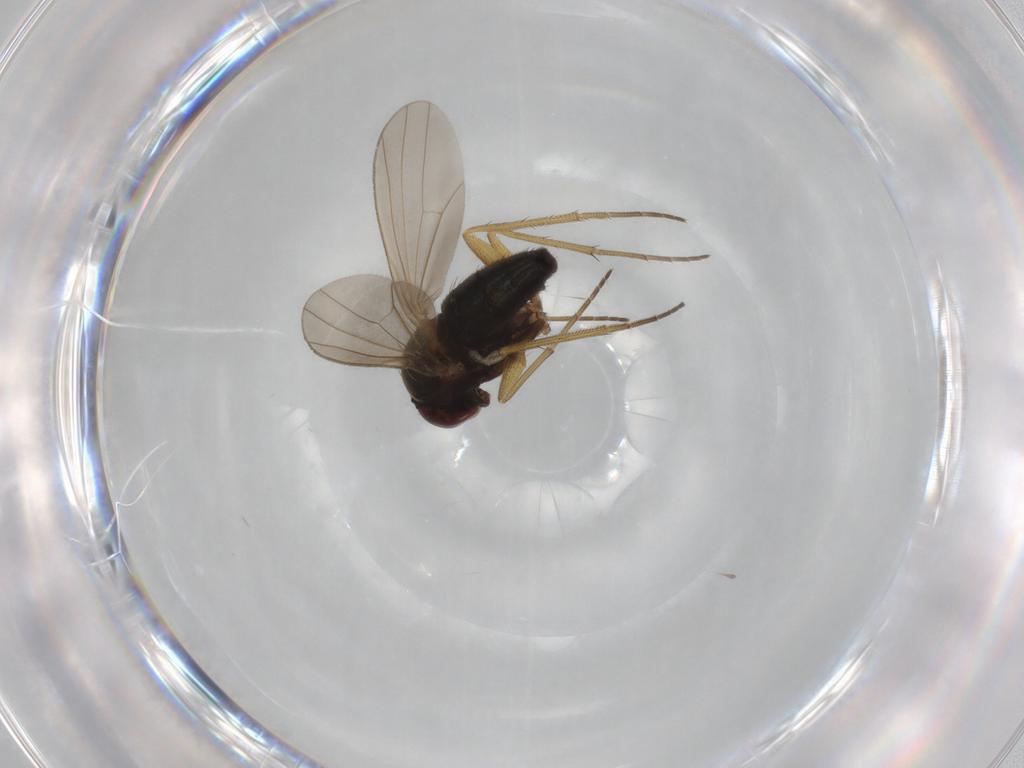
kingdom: Animalia
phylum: Arthropoda
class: Insecta
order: Diptera
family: Dolichopodidae
